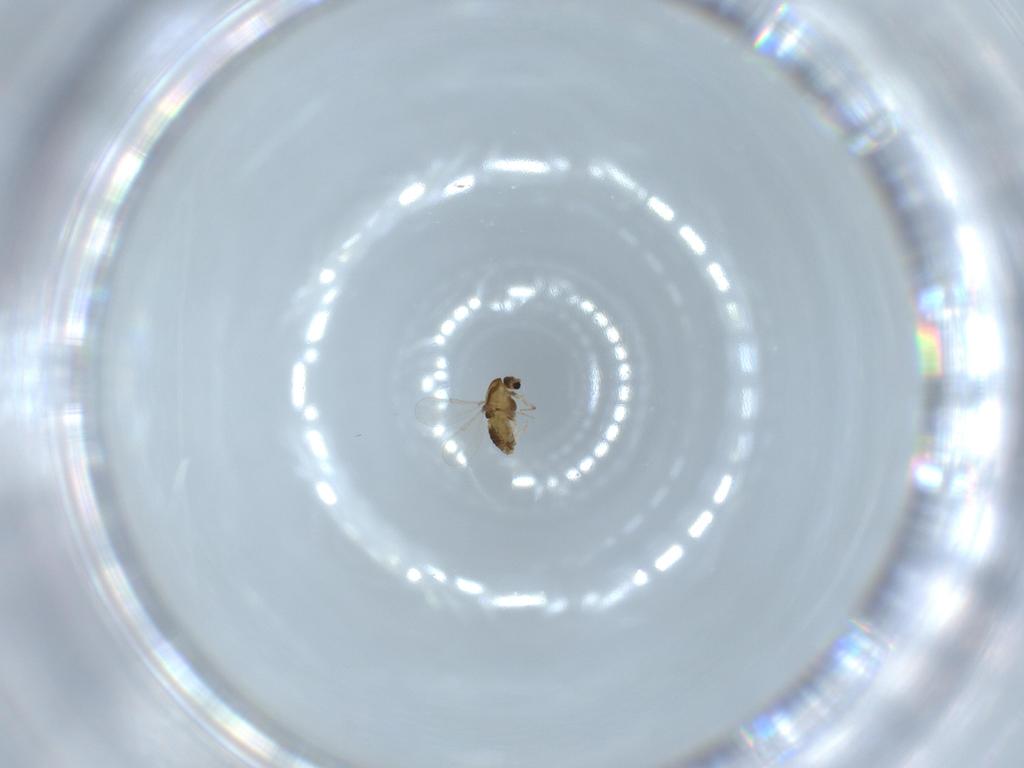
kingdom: Animalia
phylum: Arthropoda
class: Insecta
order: Diptera
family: Chironomidae
